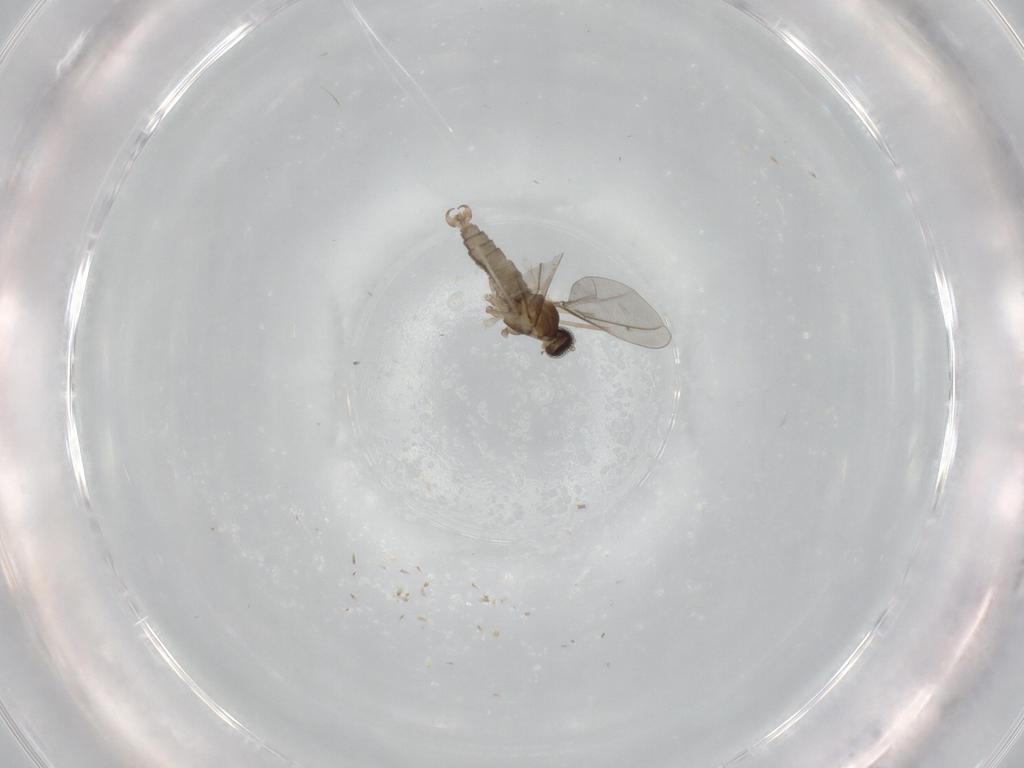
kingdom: Animalia
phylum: Arthropoda
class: Insecta
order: Diptera
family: Cecidomyiidae
